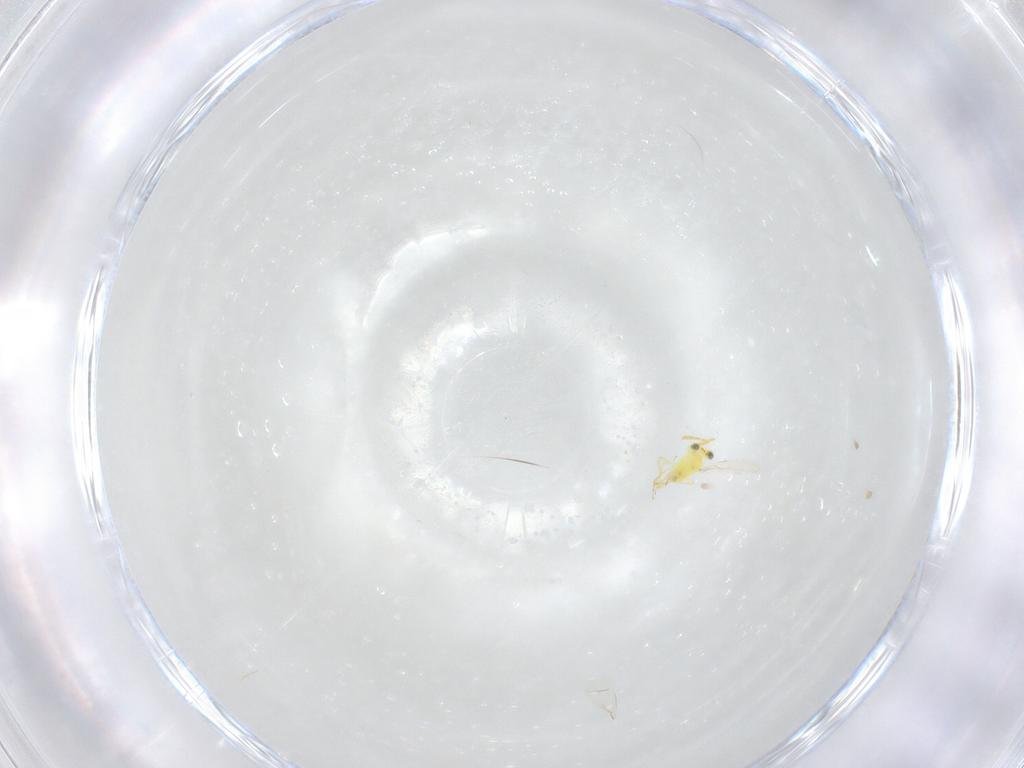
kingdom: Animalia
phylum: Arthropoda
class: Insecta
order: Hymenoptera
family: Aphelinidae
